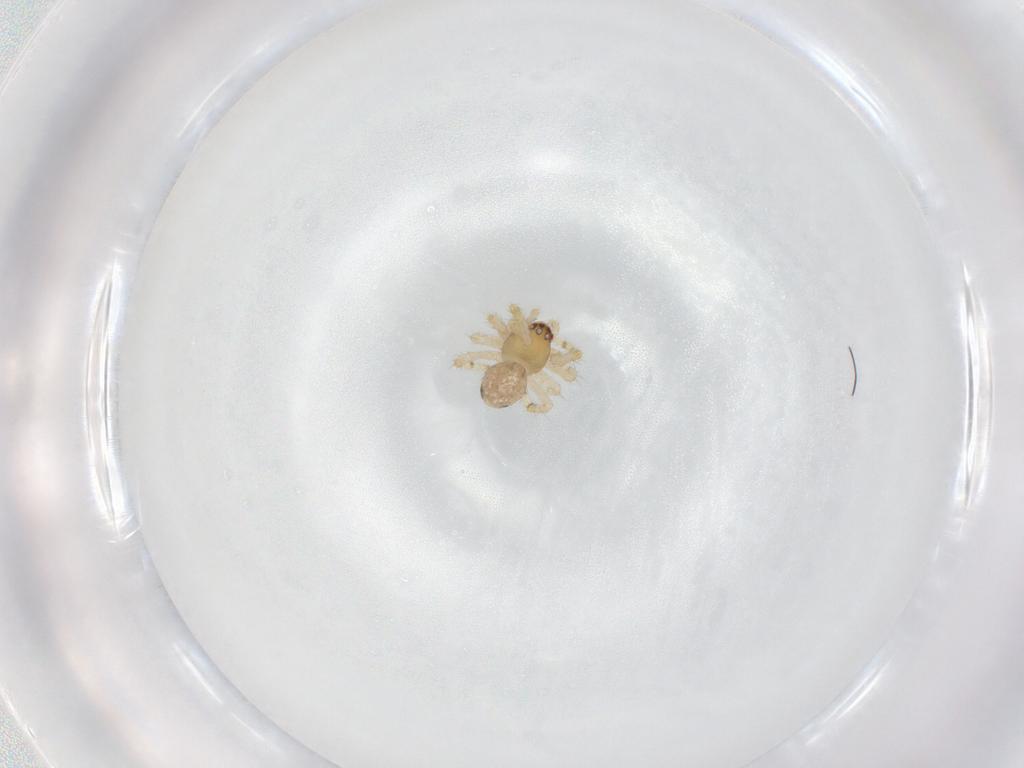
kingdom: Animalia
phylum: Arthropoda
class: Arachnida
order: Araneae
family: Theridiidae
